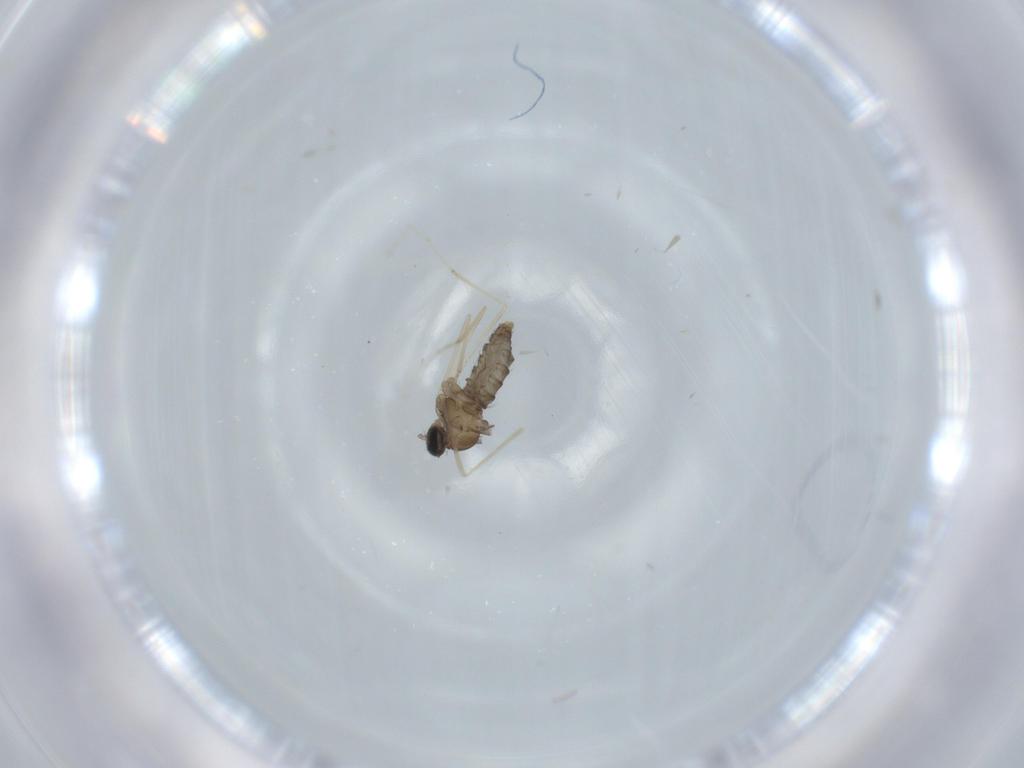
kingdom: Animalia
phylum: Arthropoda
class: Insecta
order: Diptera
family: Cecidomyiidae
